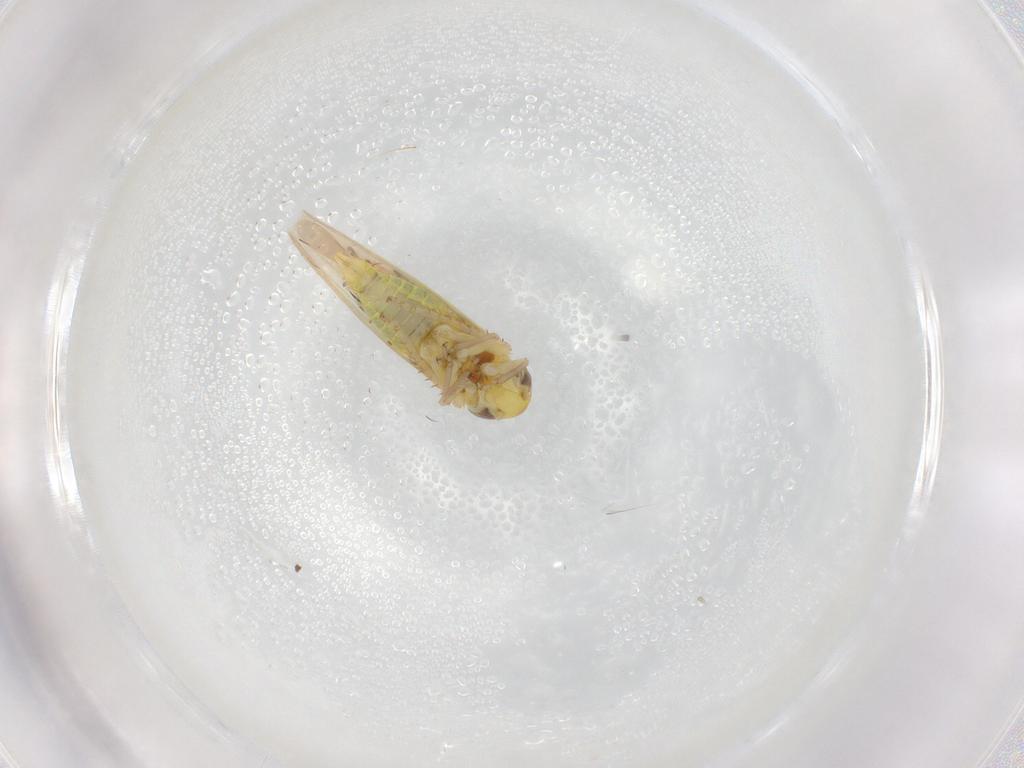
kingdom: Animalia
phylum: Arthropoda
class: Insecta
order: Hemiptera
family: Cicadellidae
